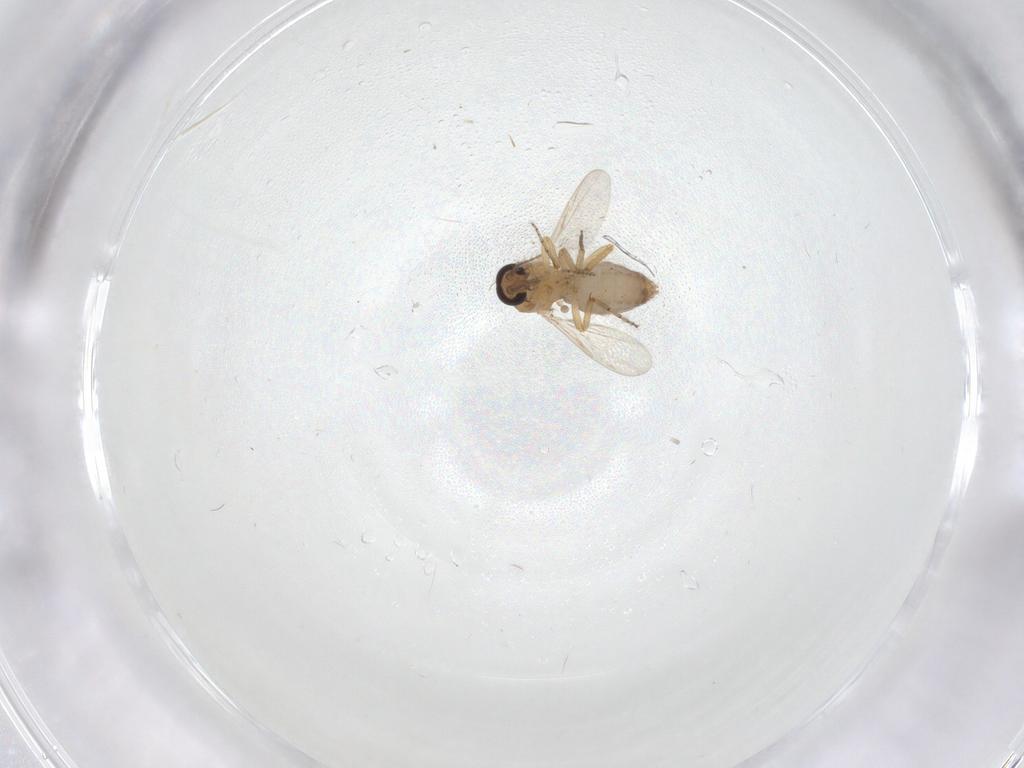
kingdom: Animalia
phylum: Arthropoda
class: Insecta
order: Diptera
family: Ceratopogonidae
